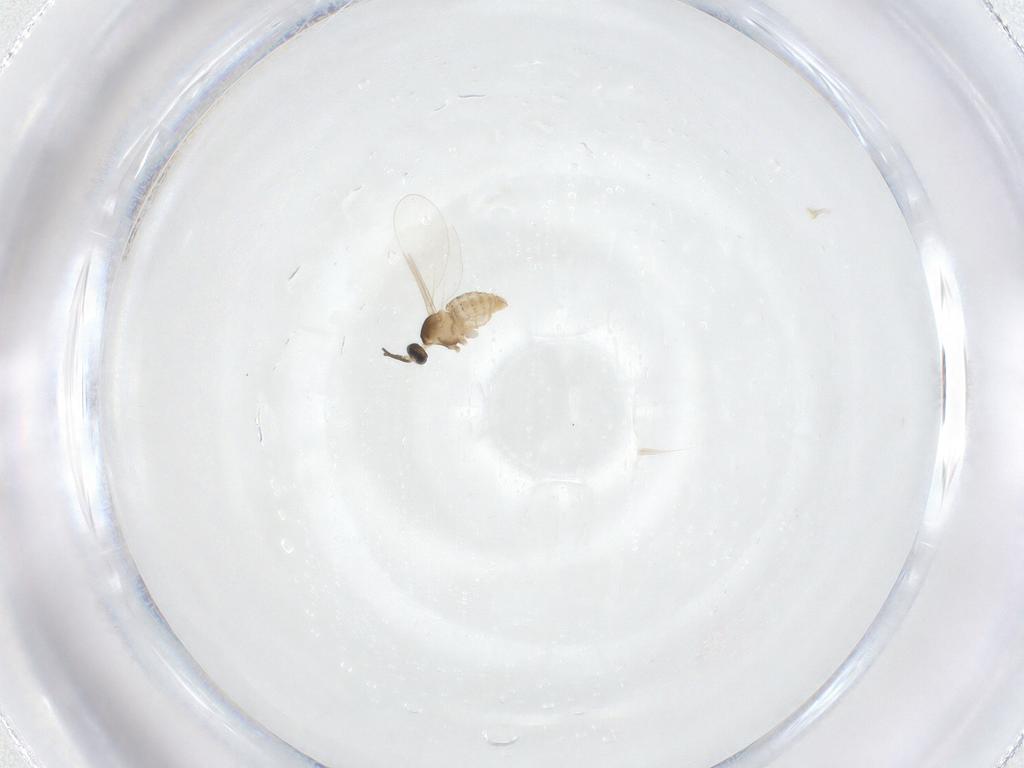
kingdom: Animalia
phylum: Arthropoda
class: Insecta
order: Diptera
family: Cecidomyiidae
